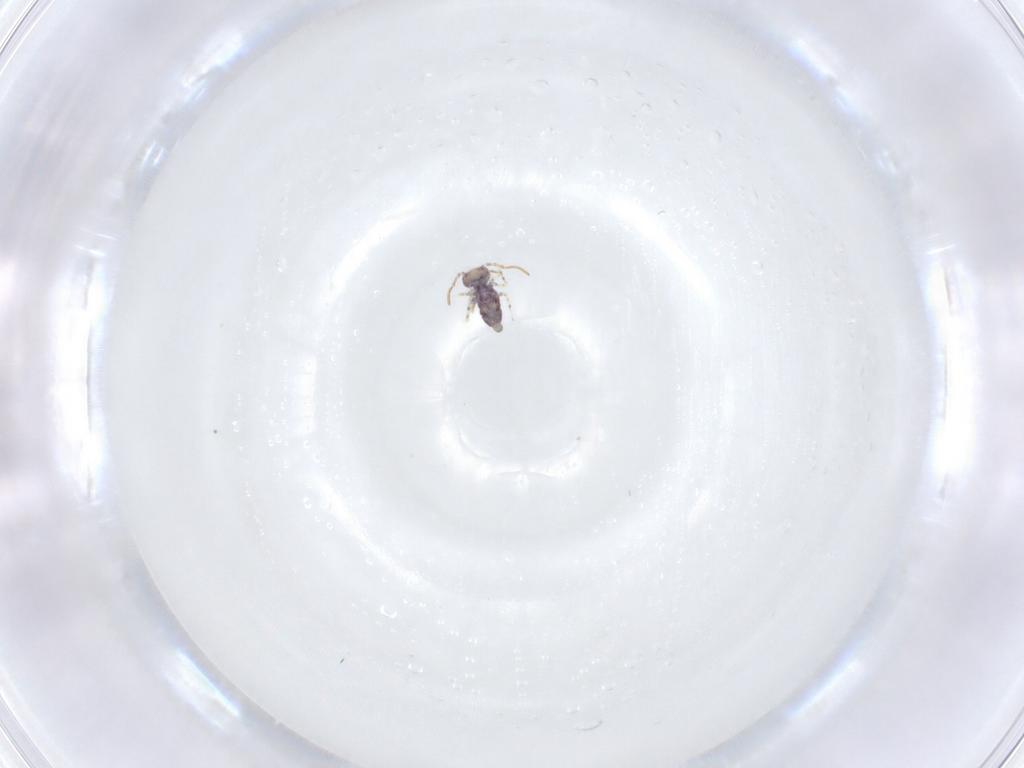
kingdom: Animalia
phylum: Arthropoda
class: Collembola
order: Symphypleona
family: Bourletiellidae
